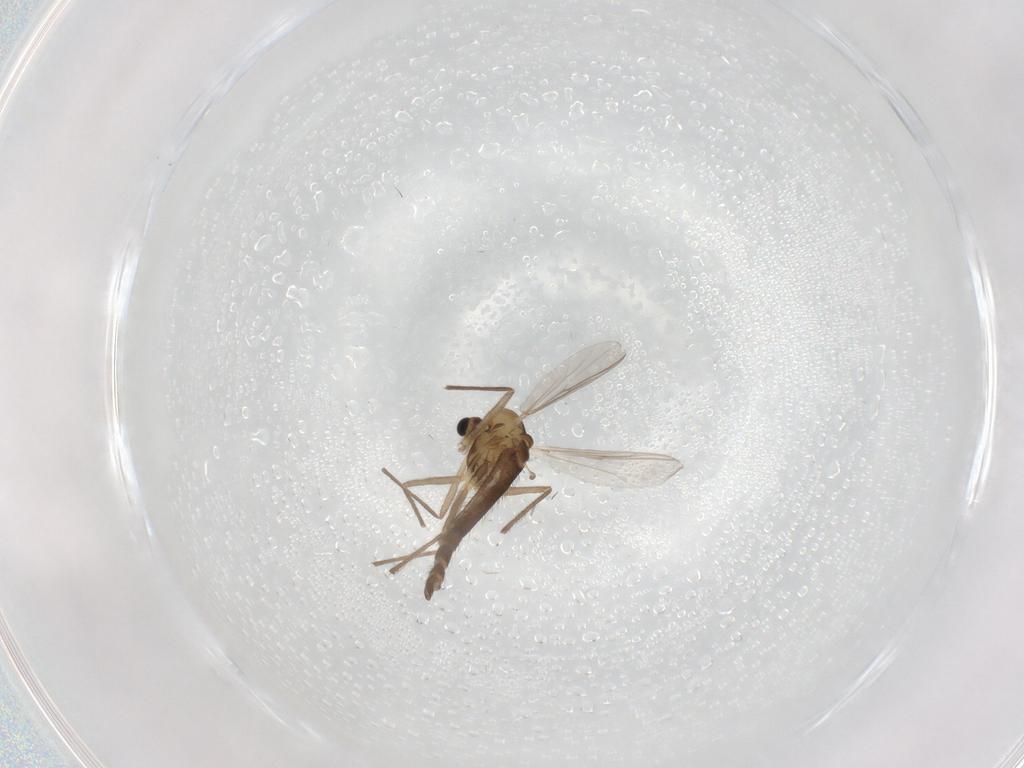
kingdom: Animalia
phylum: Arthropoda
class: Insecta
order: Diptera
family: Chironomidae
